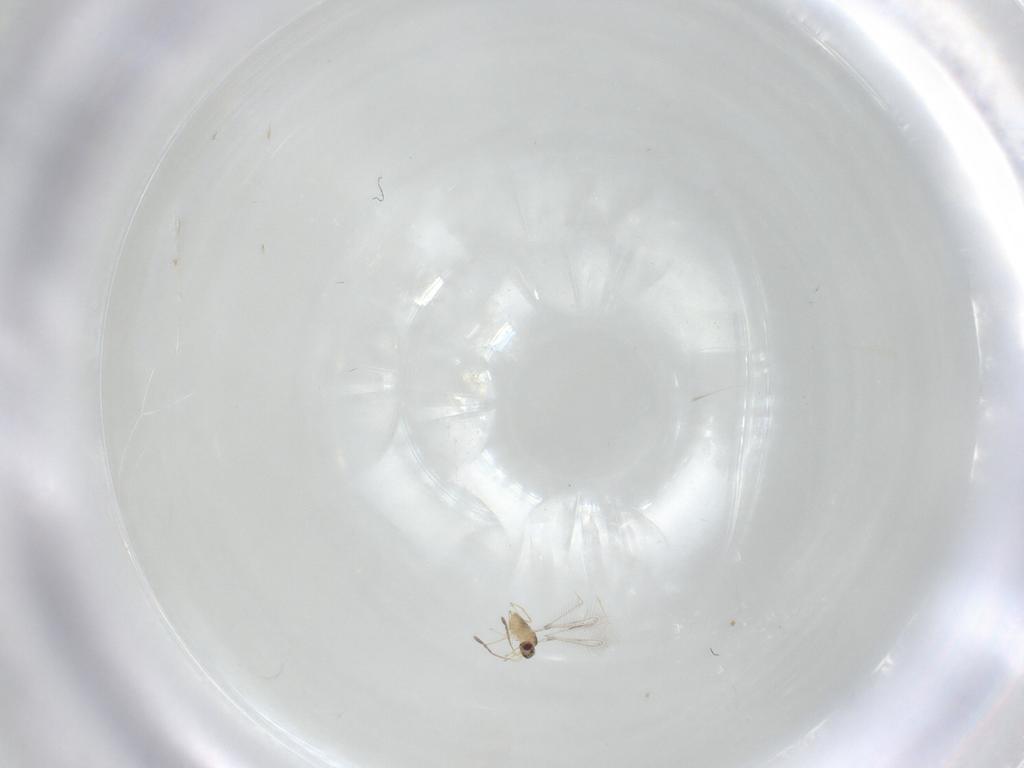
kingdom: Animalia
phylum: Arthropoda
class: Insecta
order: Hymenoptera
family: Mymaridae
